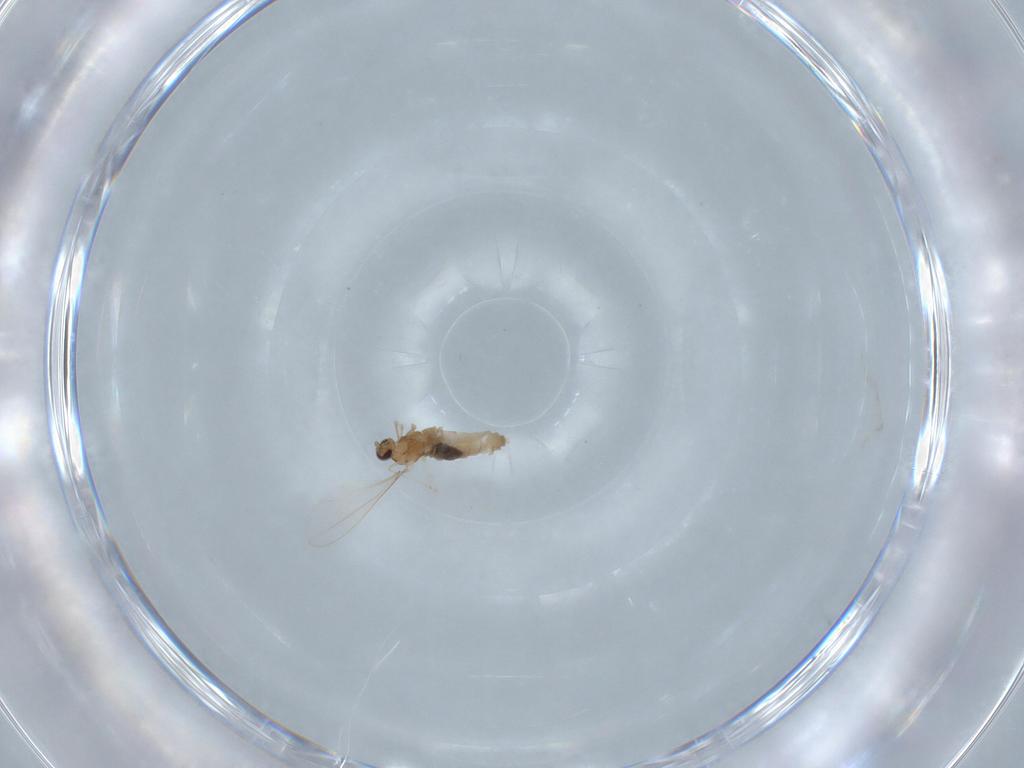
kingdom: Animalia
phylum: Arthropoda
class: Insecta
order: Diptera
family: Cecidomyiidae
